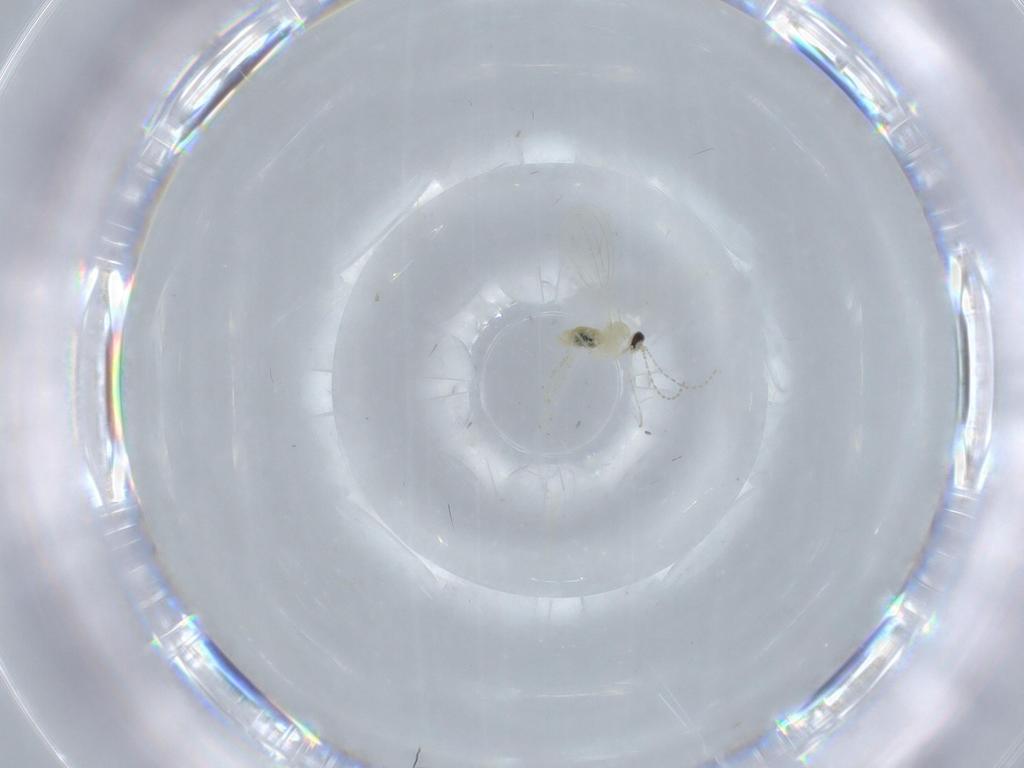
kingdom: Animalia
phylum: Arthropoda
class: Insecta
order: Diptera
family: Cecidomyiidae
